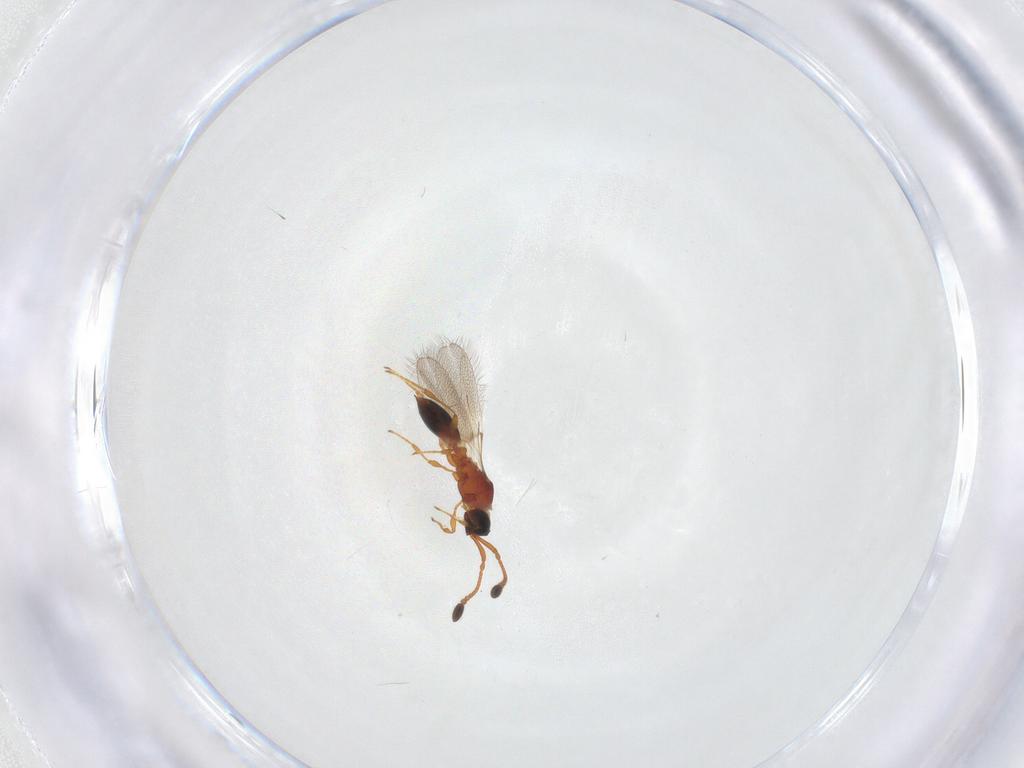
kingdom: Animalia
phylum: Arthropoda
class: Insecta
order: Hymenoptera
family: Diapriidae
